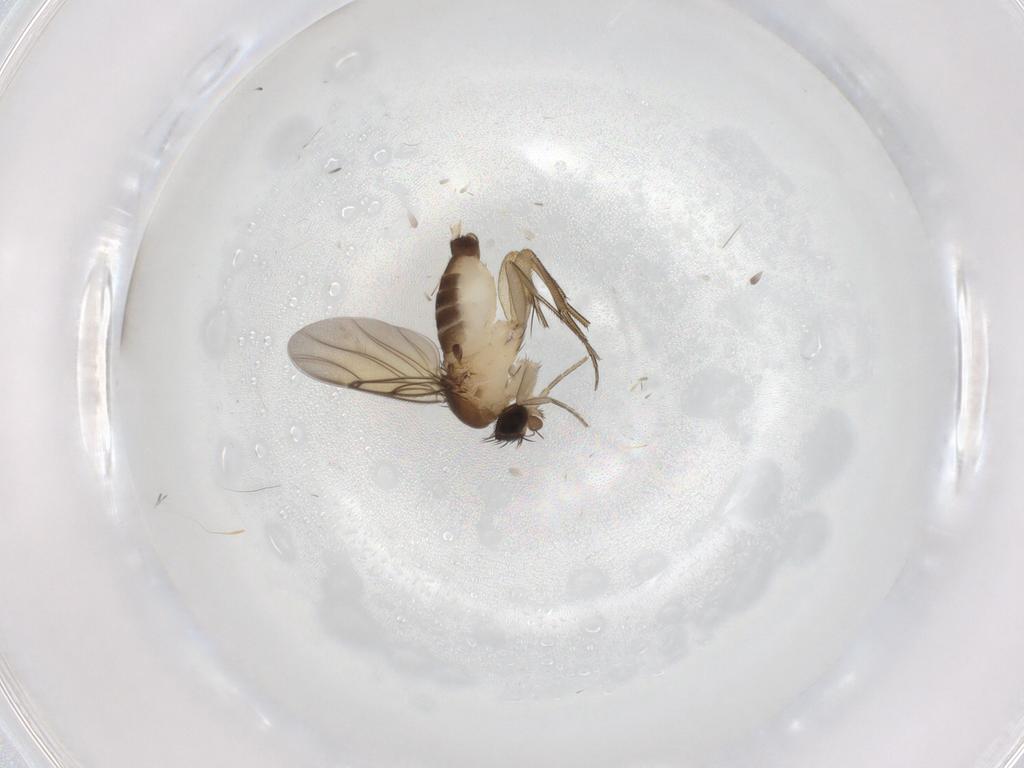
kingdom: Animalia
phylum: Arthropoda
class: Insecta
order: Diptera
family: Phoridae
